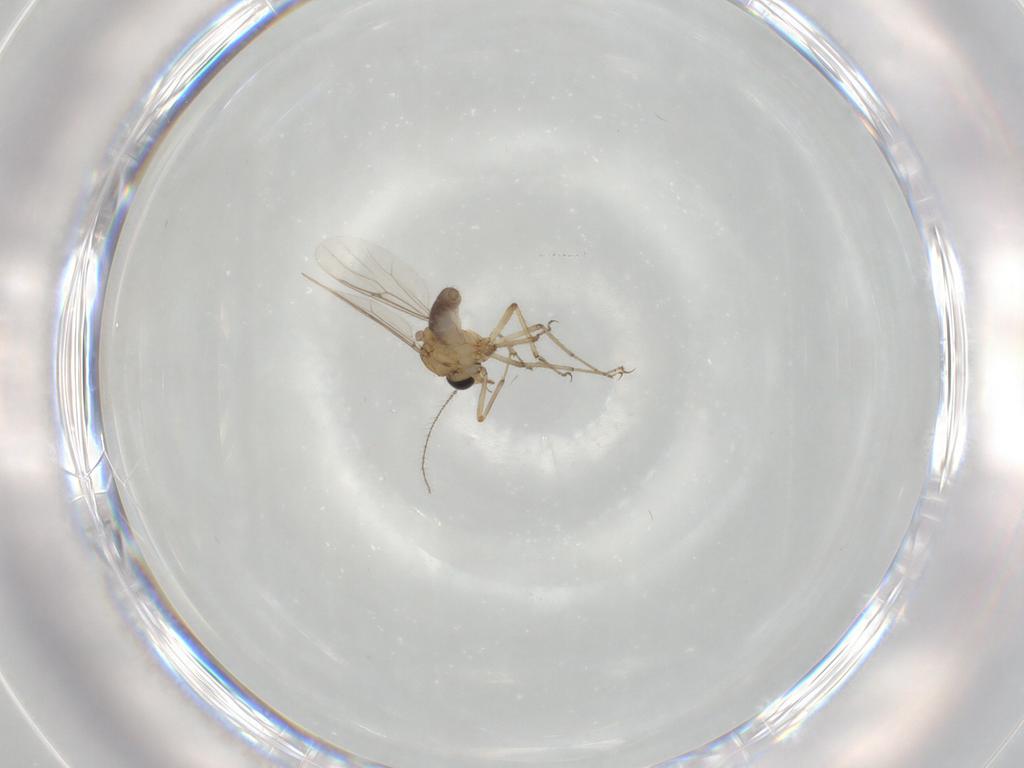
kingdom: Animalia
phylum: Arthropoda
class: Insecta
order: Diptera
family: Ceratopogonidae
